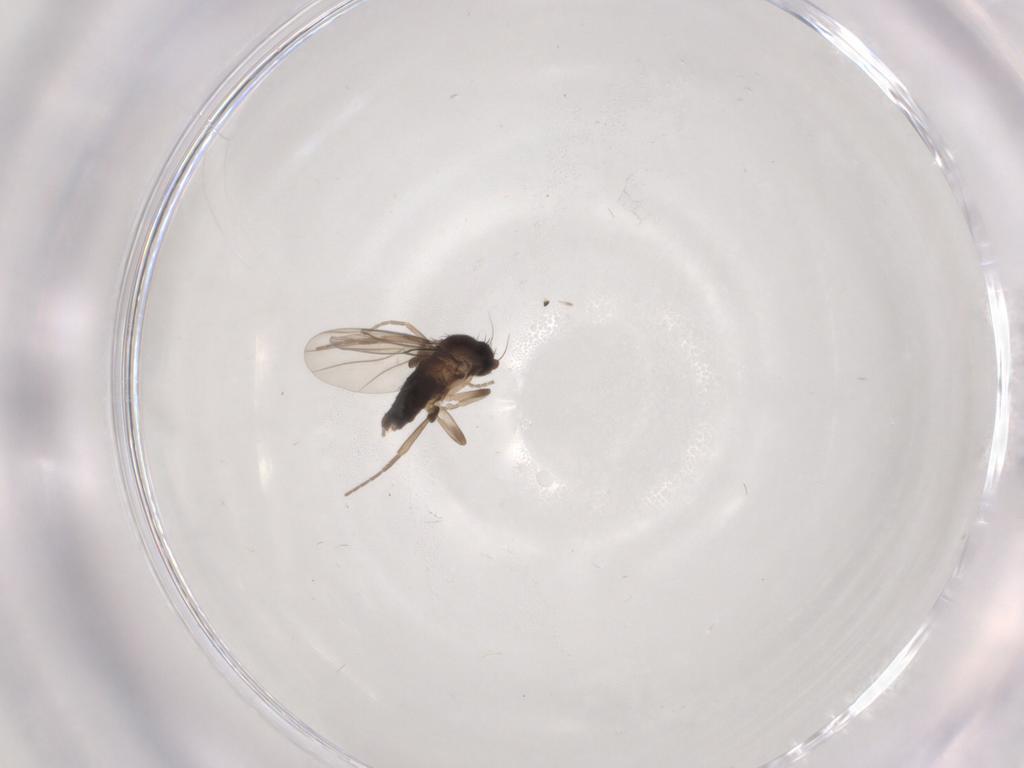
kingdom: Animalia
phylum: Arthropoda
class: Insecta
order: Diptera
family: Phoridae
